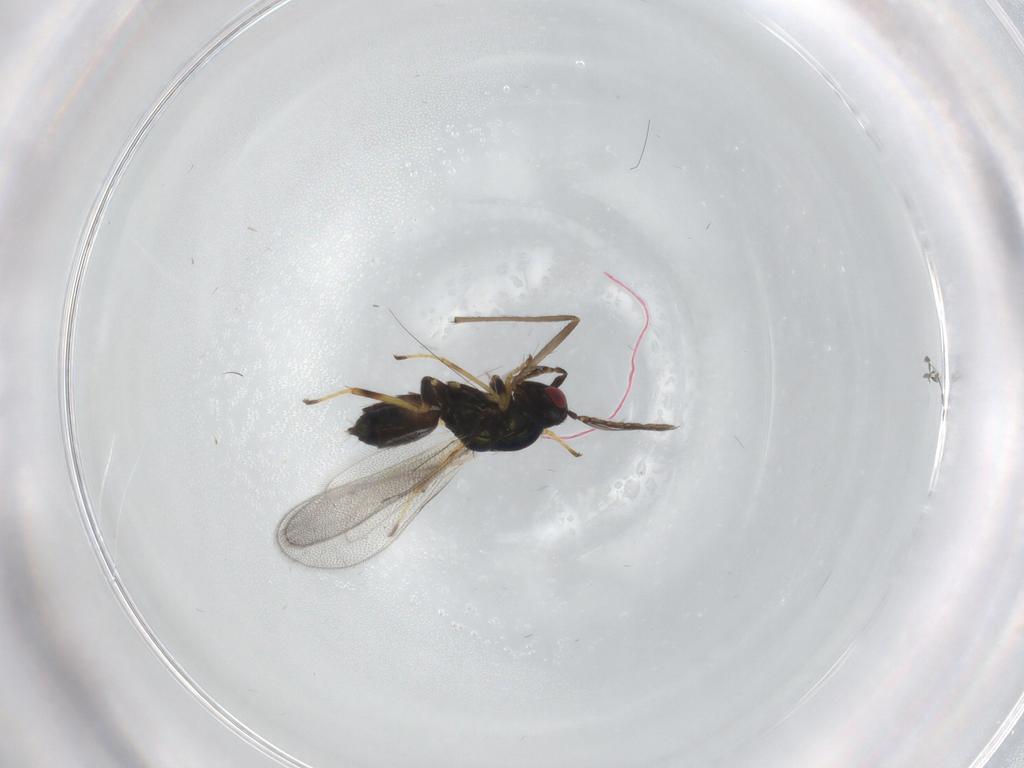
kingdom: Animalia
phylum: Arthropoda
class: Insecta
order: Hymenoptera
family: Eulophidae
